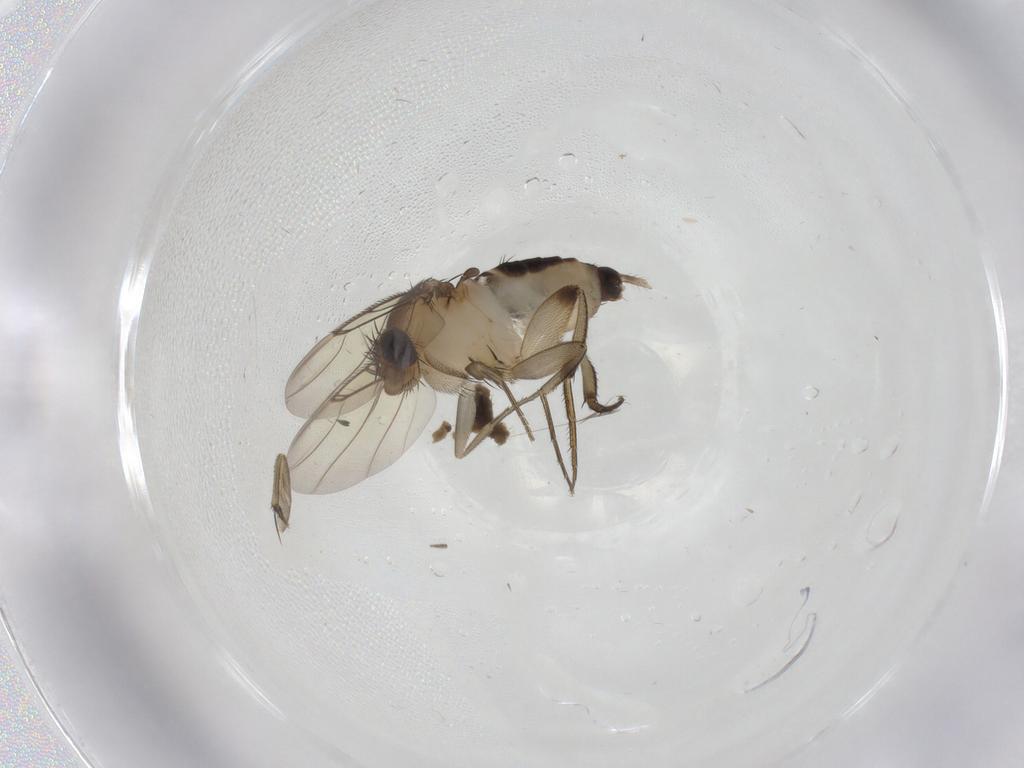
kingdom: Animalia
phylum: Arthropoda
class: Insecta
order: Diptera
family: Phoridae
